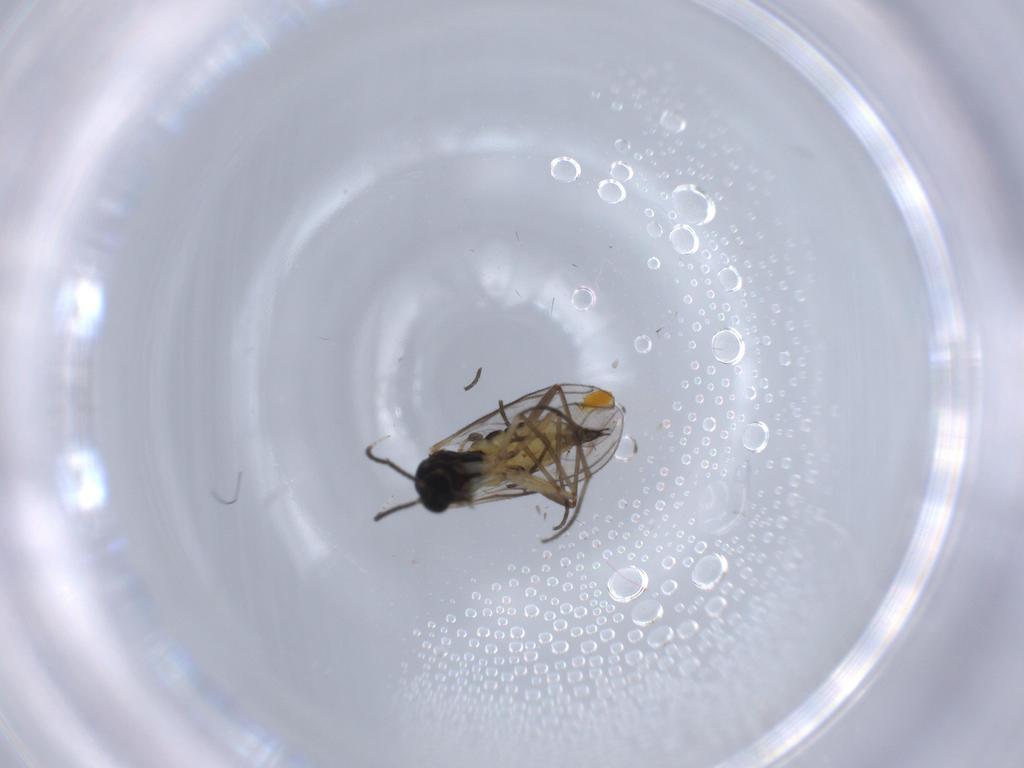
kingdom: Animalia
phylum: Arthropoda
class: Insecta
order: Diptera
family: Sciaridae
